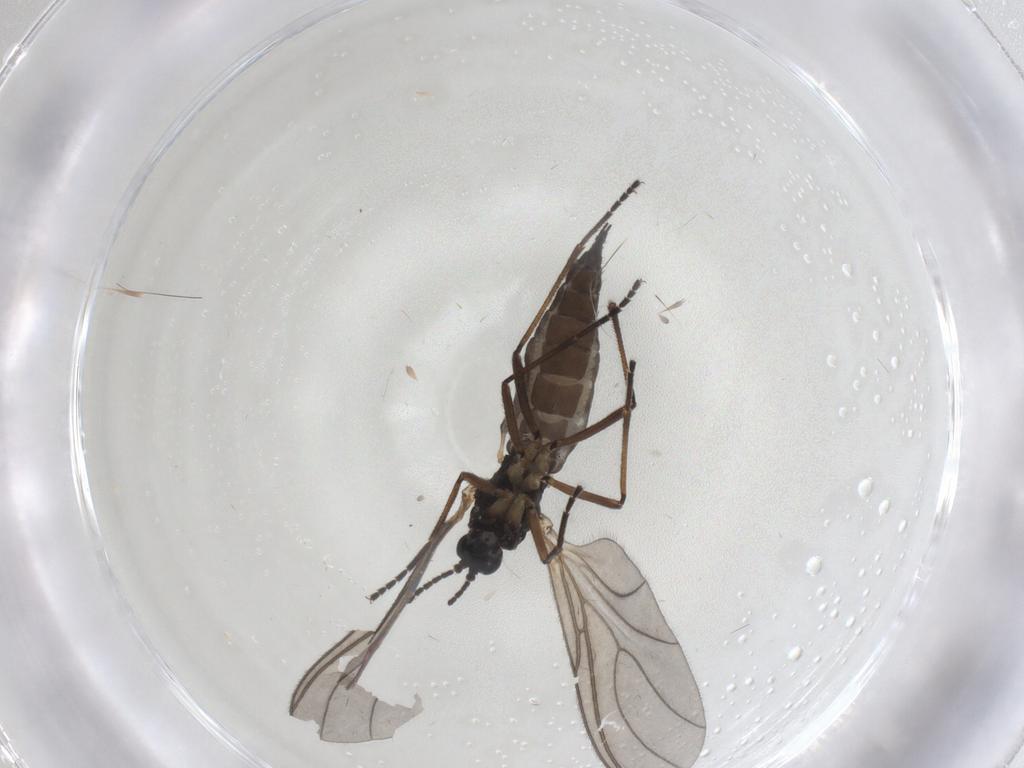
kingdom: Animalia
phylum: Arthropoda
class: Insecta
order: Diptera
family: Sciaridae
